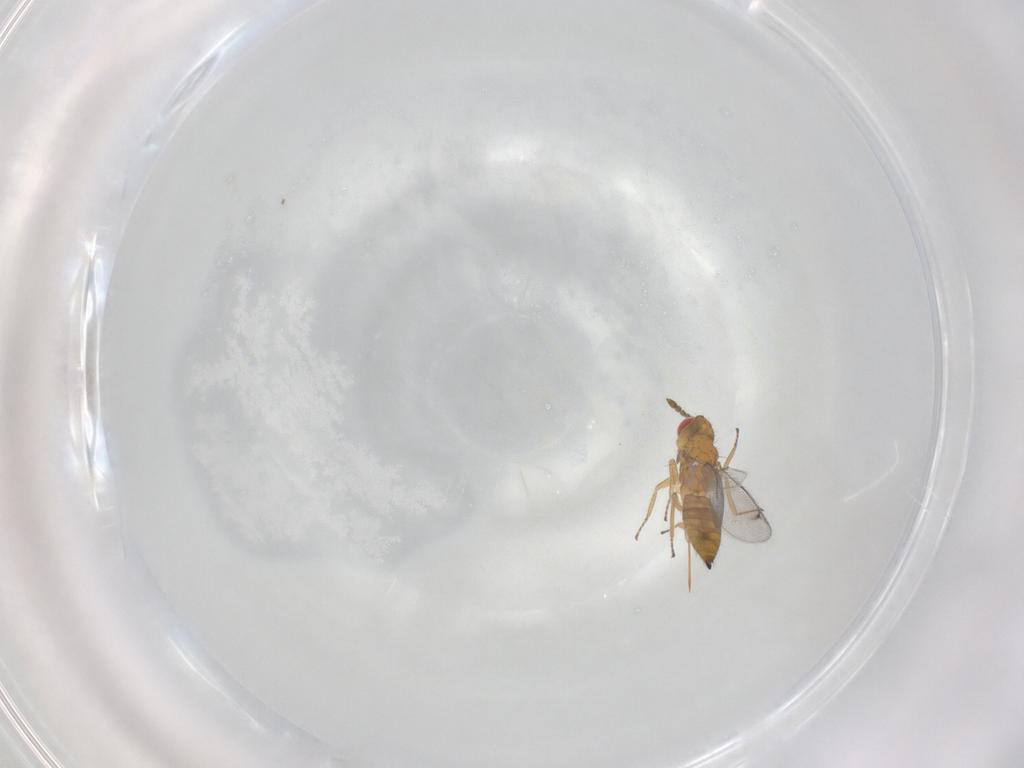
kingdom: Animalia
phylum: Arthropoda
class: Insecta
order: Hymenoptera
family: Eulophidae
